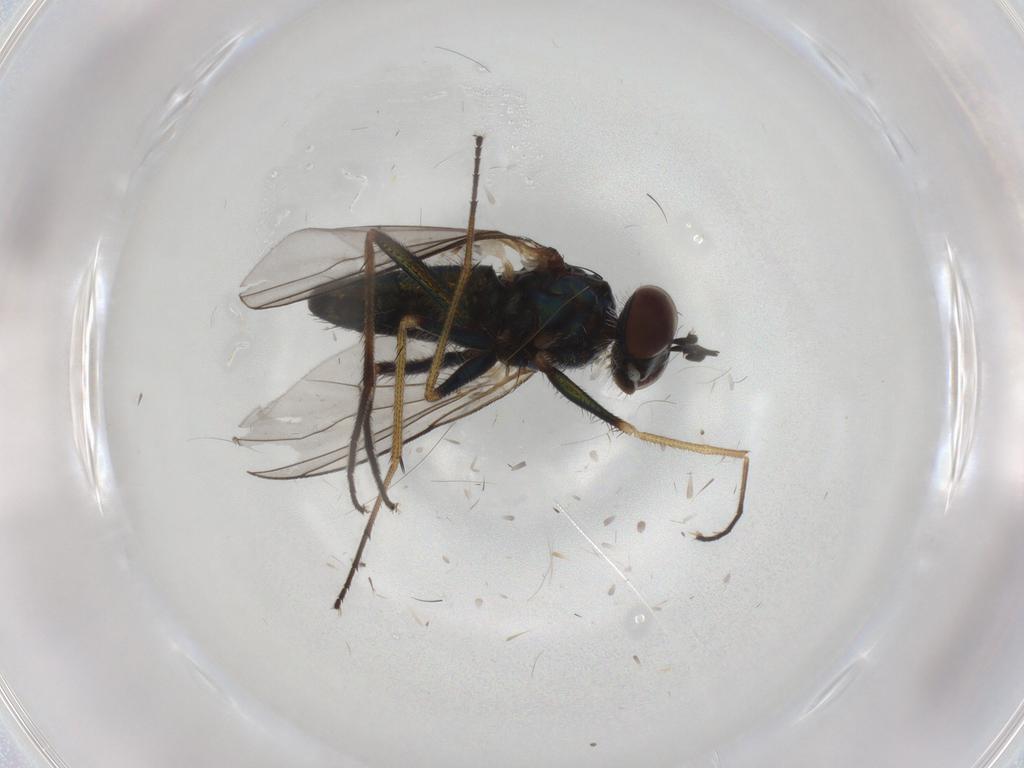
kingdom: Animalia
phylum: Arthropoda
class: Insecta
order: Diptera
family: Dolichopodidae
